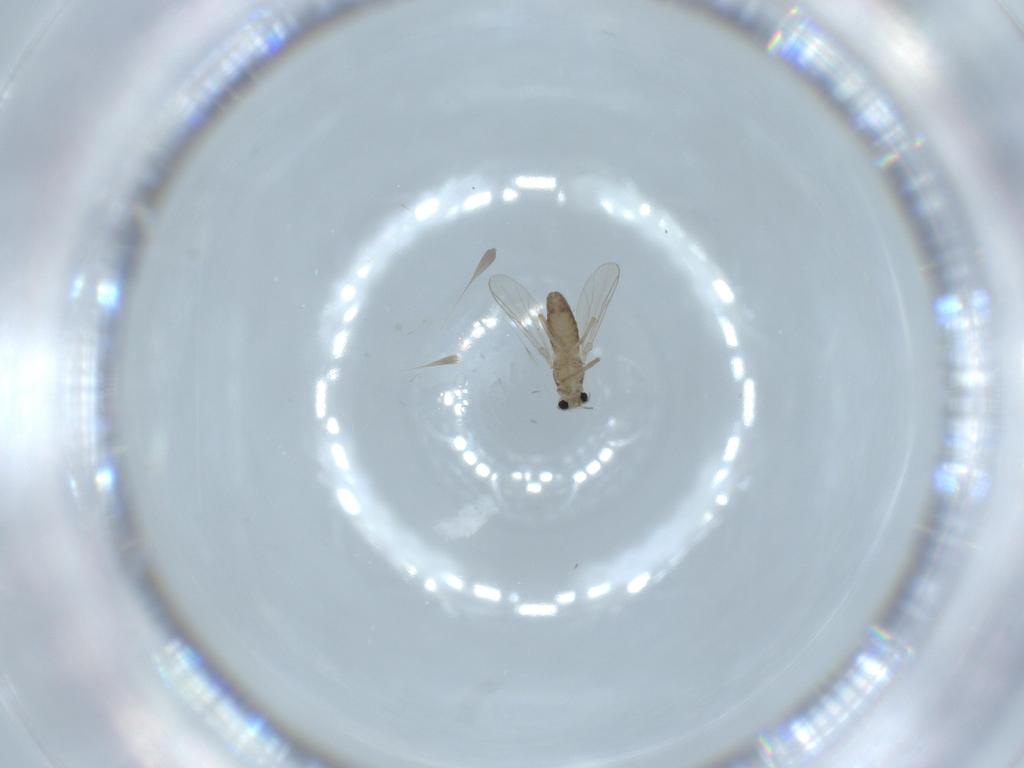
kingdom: Animalia
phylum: Arthropoda
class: Insecta
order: Diptera
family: Chironomidae
